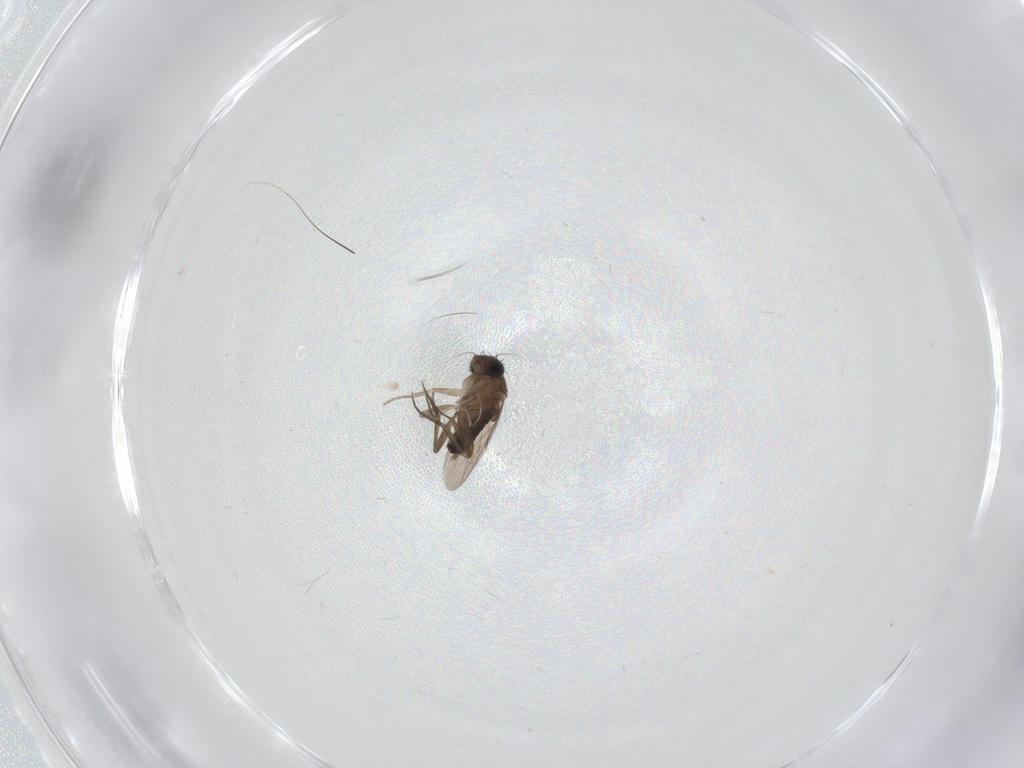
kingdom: Animalia
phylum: Arthropoda
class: Insecta
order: Diptera
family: Phoridae
